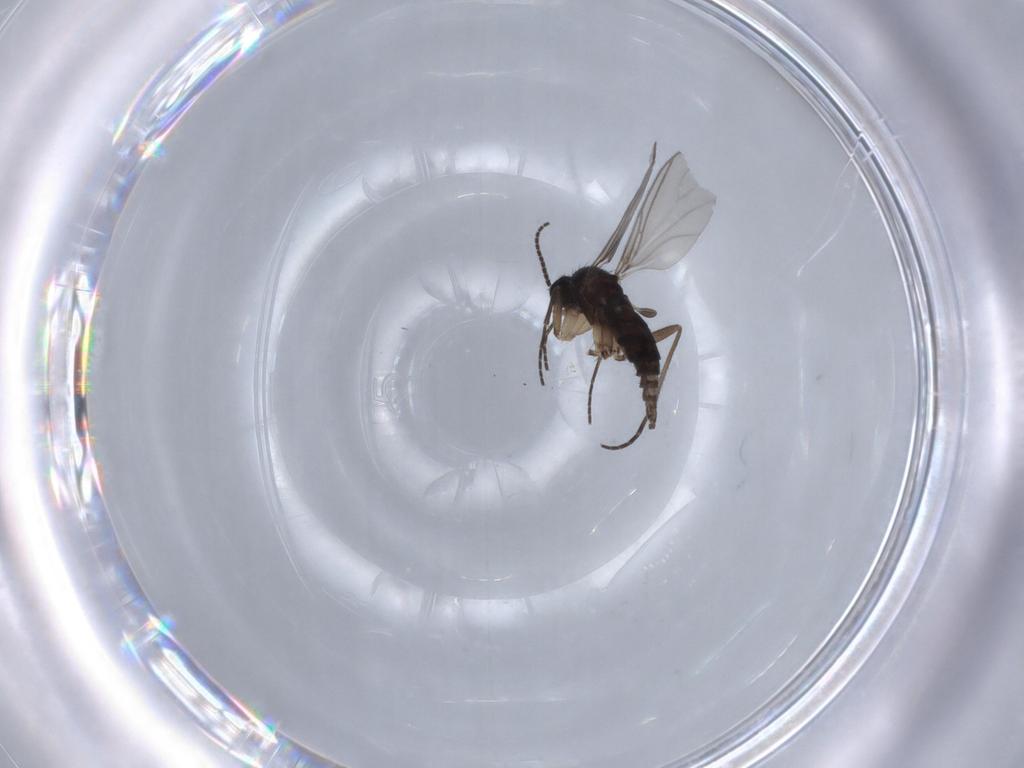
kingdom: Animalia
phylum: Arthropoda
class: Insecta
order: Diptera
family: Sciaridae
